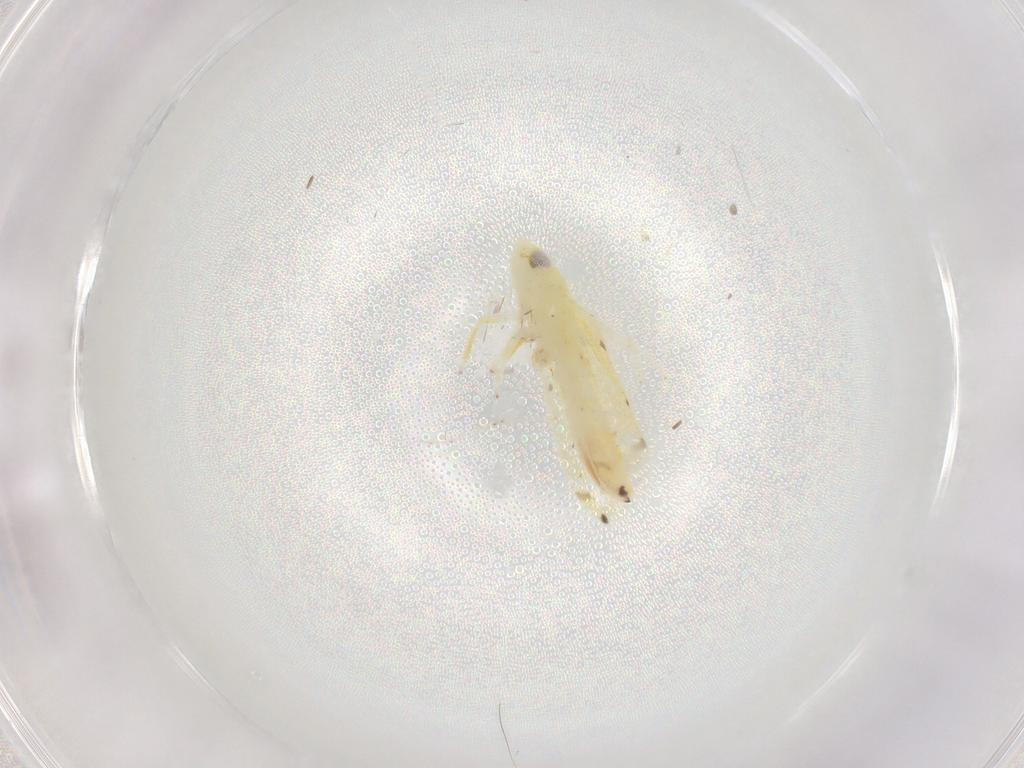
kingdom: Animalia
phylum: Arthropoda
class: Insecta
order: Hemiptera
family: Cicadellidae
